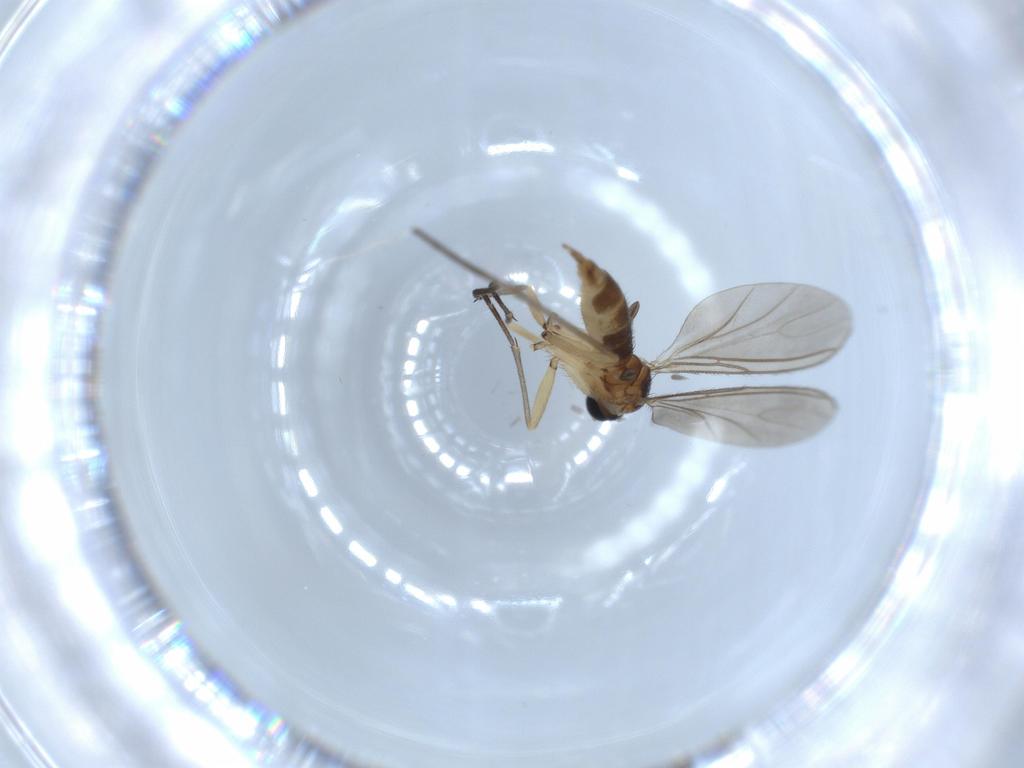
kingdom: Animalia
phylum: Arthropoda
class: Insecta
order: Diptera
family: Sciaridae
